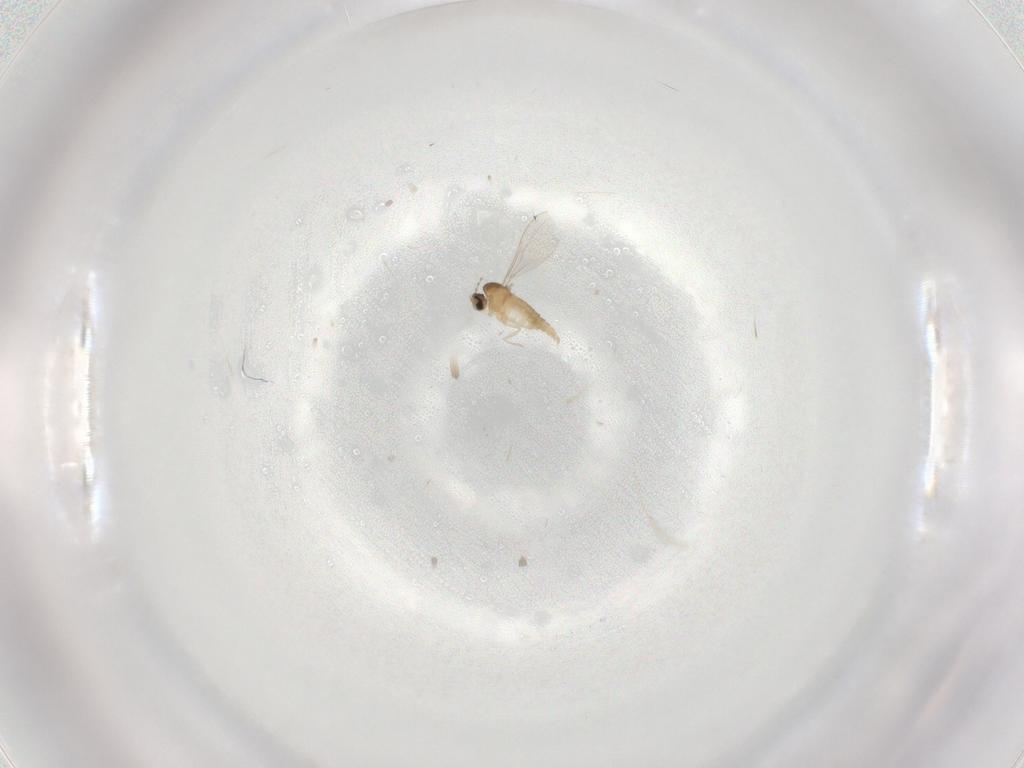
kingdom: Animalia
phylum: Arthropoda
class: Insecta
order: Diptera
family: Cecidomyiidae
